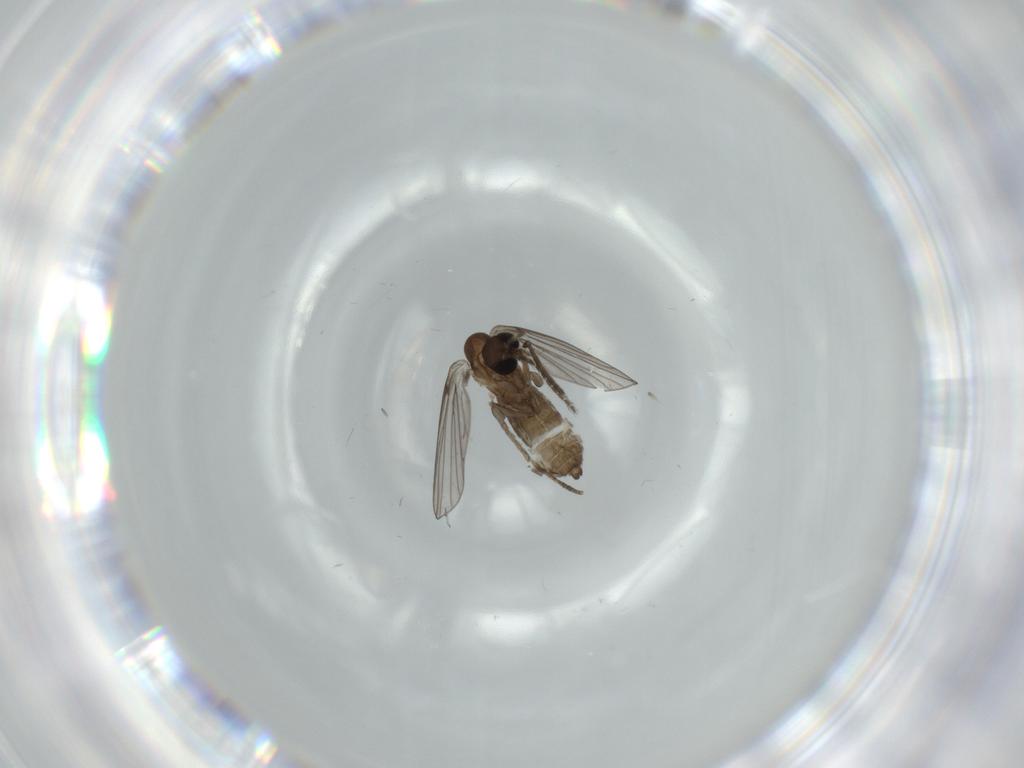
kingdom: Animalia
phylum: Arthropoda
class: Insecta
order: Diptera
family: Psychodidae
